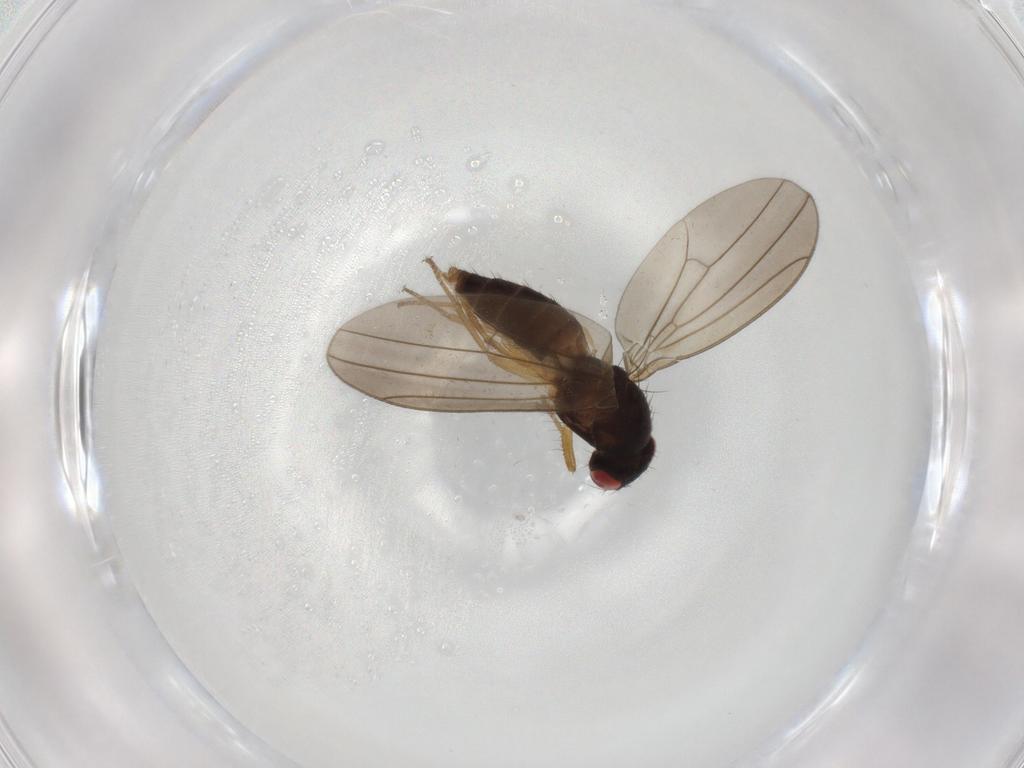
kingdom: Animalia
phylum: Arthropoda
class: Insecta
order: Diptera
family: Drosophilidae
